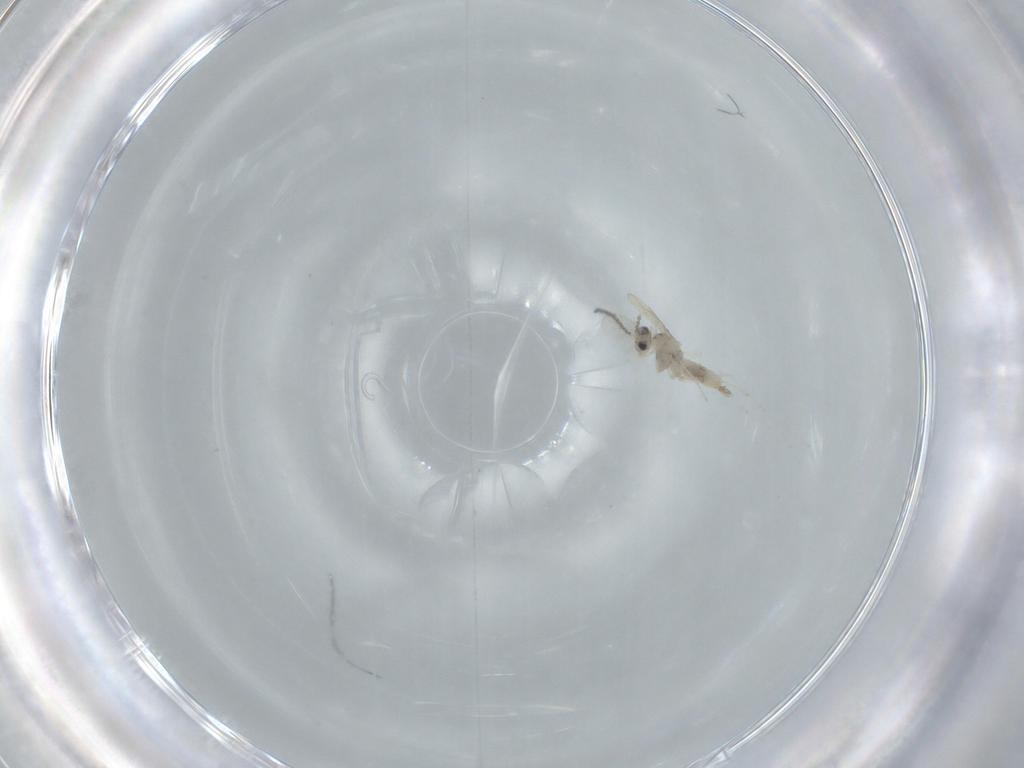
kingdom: Animalia
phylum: Arthropoda
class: Insecta
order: Diptera
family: Cecidomyiidae
